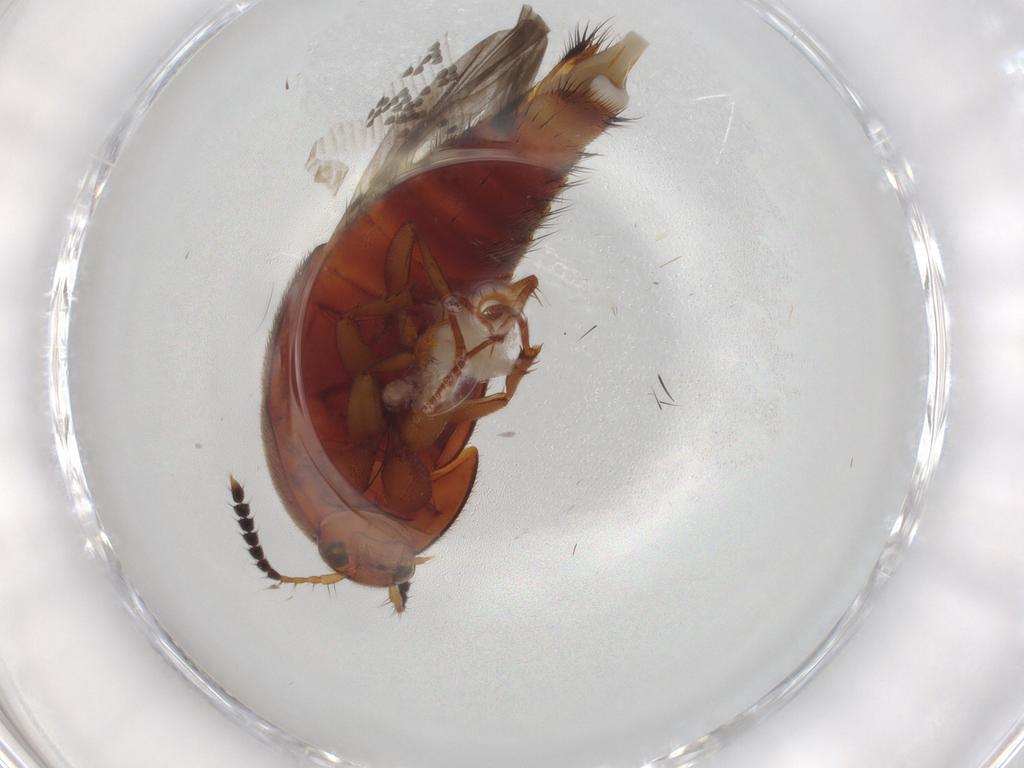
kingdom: Animalia
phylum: Arthropoda
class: Insecta
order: Coleoptera
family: Staphylinidae
